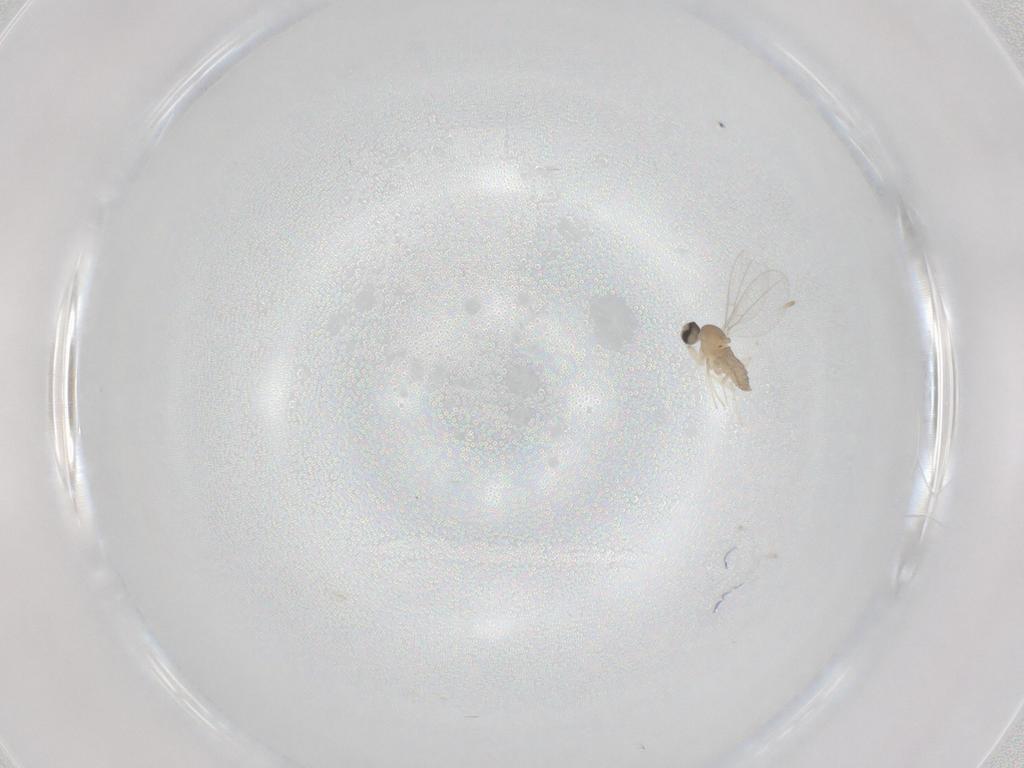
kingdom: Animalia
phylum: Arthropoda
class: Insecta
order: Diptera
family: Cecidomyiidae
